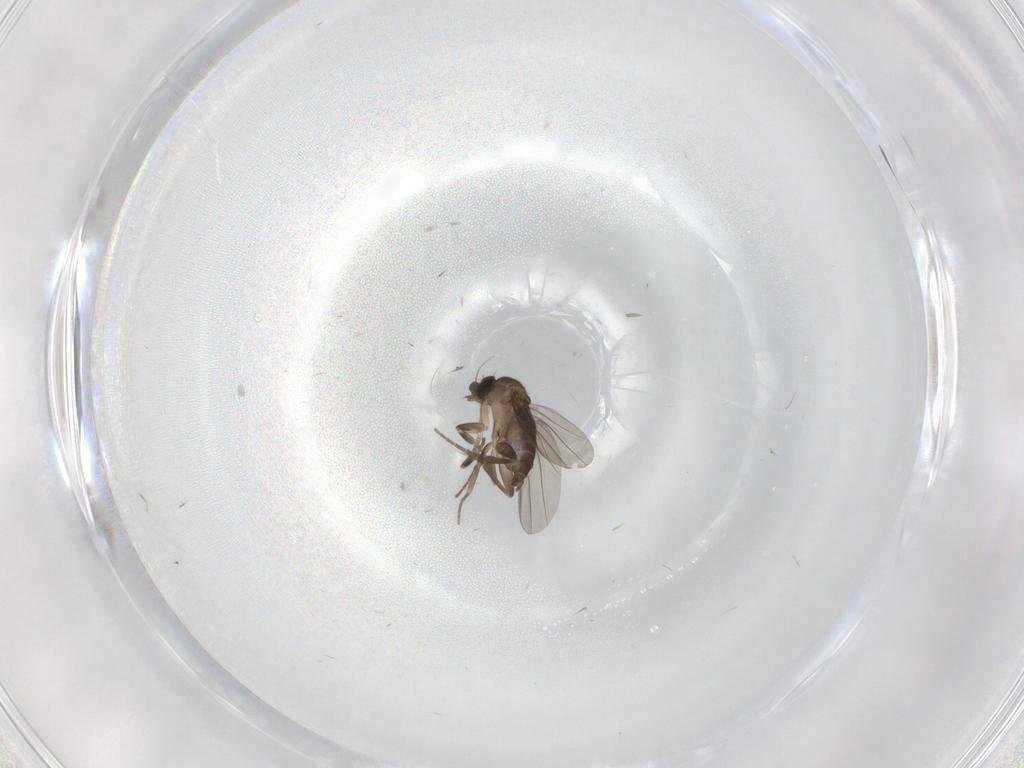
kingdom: Animalia
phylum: Arthropoda
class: Insecta
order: Diptera
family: Phoridae
